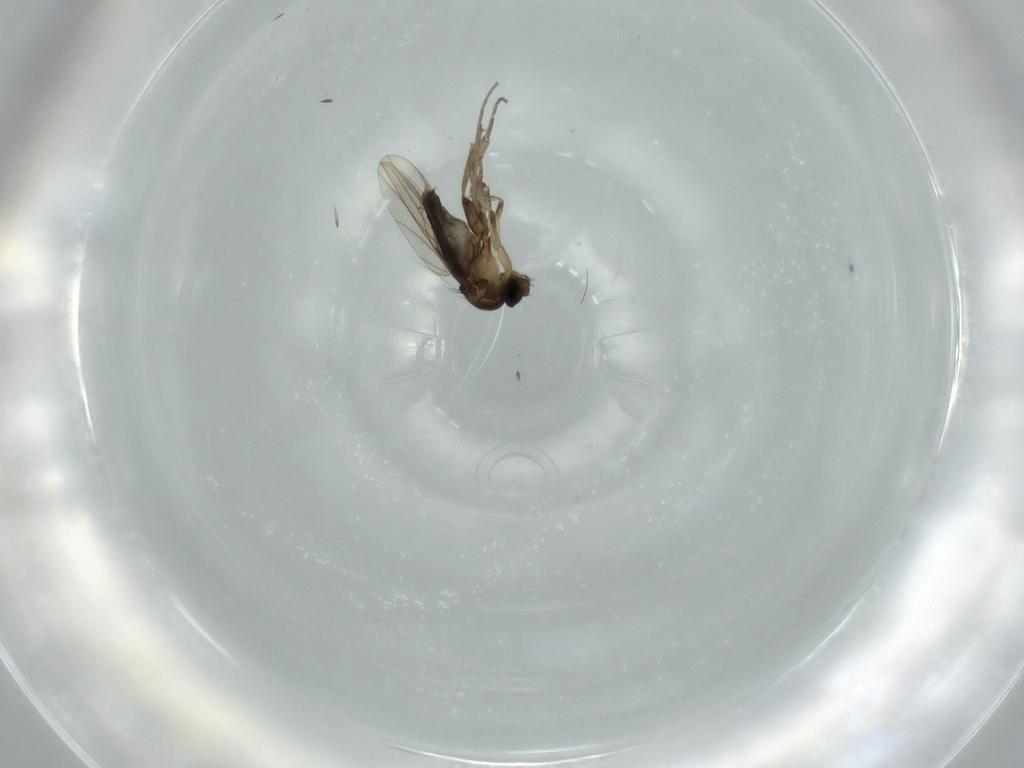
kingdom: Animalia
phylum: Arthropoda
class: Insecta
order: Diptera
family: Phoridae
